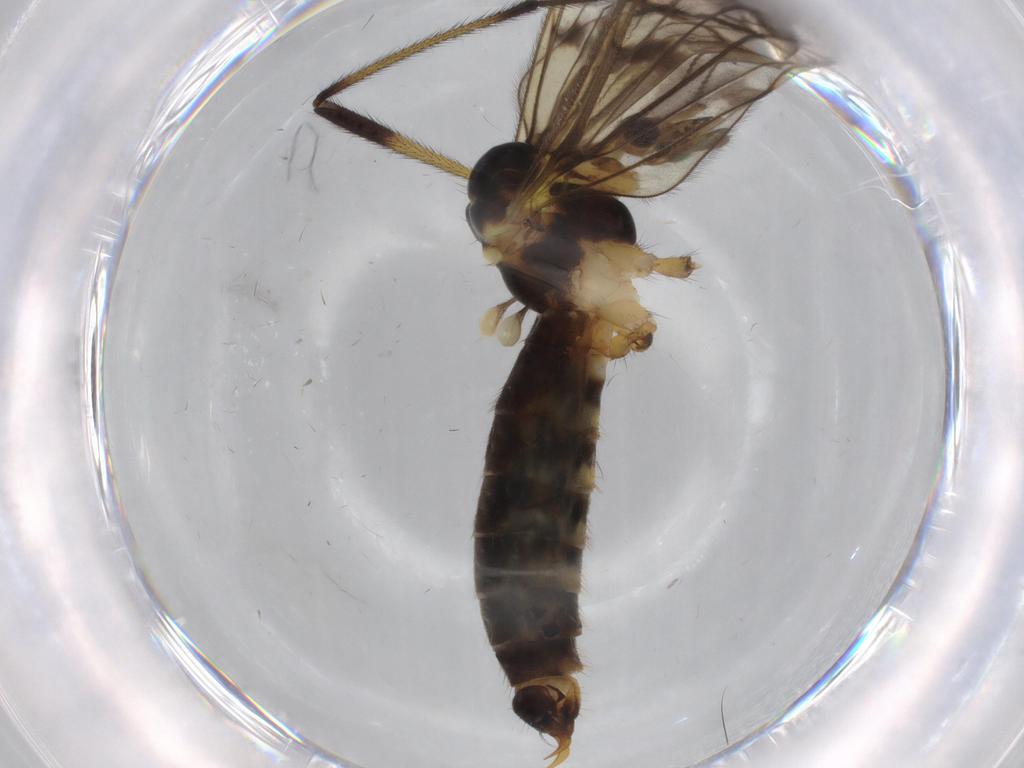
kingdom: Animalia
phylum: Arthropoda
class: Insecta
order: Diptera
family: Limoniidae
